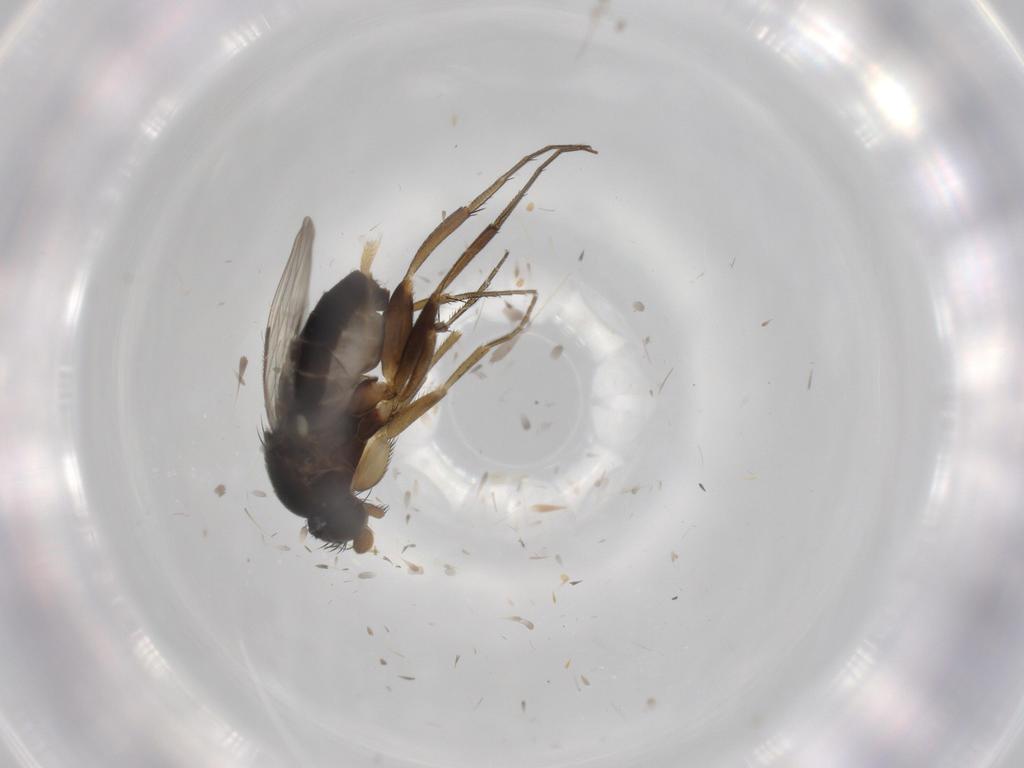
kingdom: Animalia
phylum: Arthropoda
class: Insecta
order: Diptera
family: Phoridae
